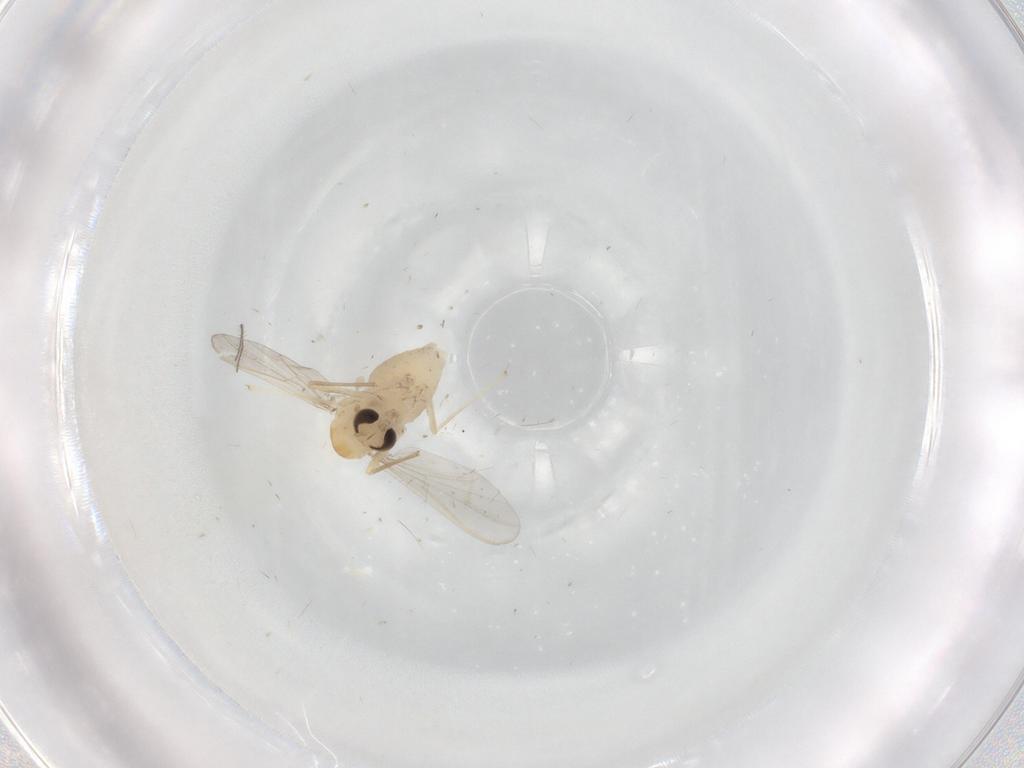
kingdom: Animalia
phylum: Arthropoda
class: Insecta
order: Diptera
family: Chironomidae
